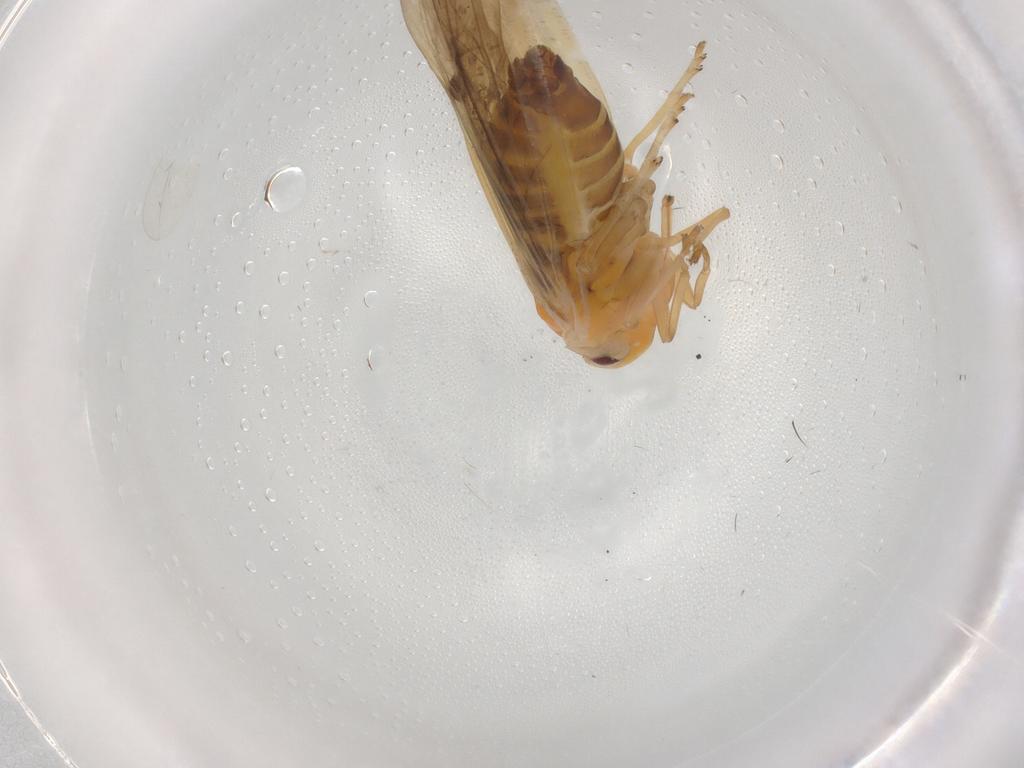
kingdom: Animalia
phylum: Arthropoda
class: Insecta
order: Hemiptera
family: Derbidae
